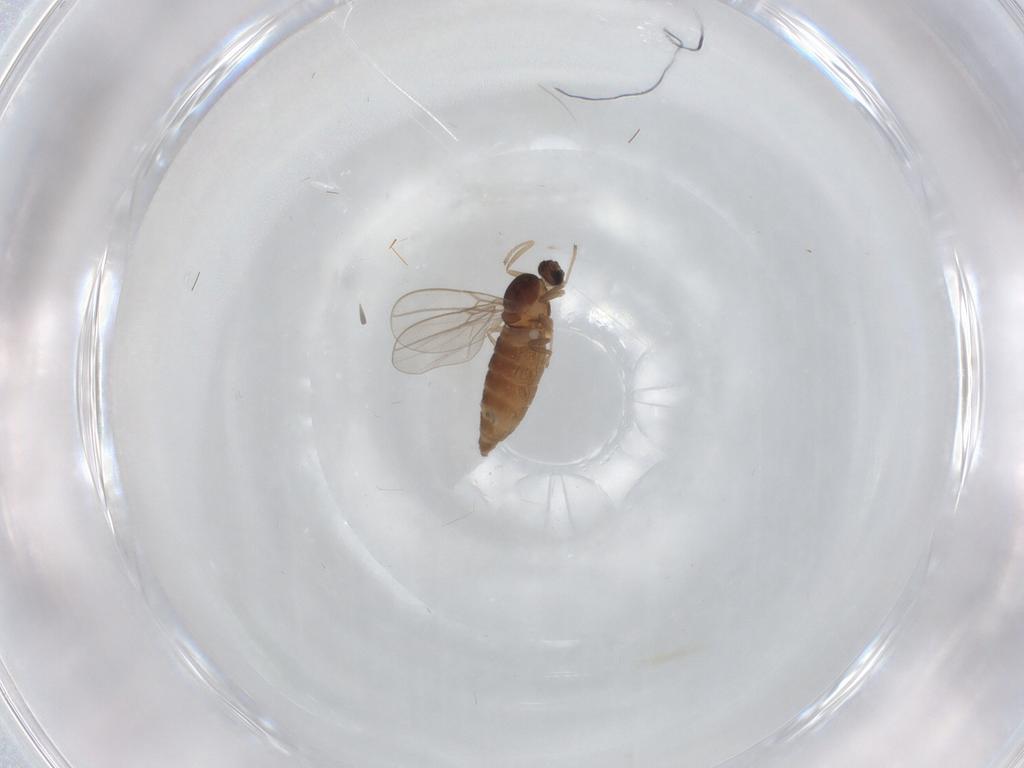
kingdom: Animalia
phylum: Arthropoda
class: Insecta
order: Diptera
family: Cecidomyiidae
